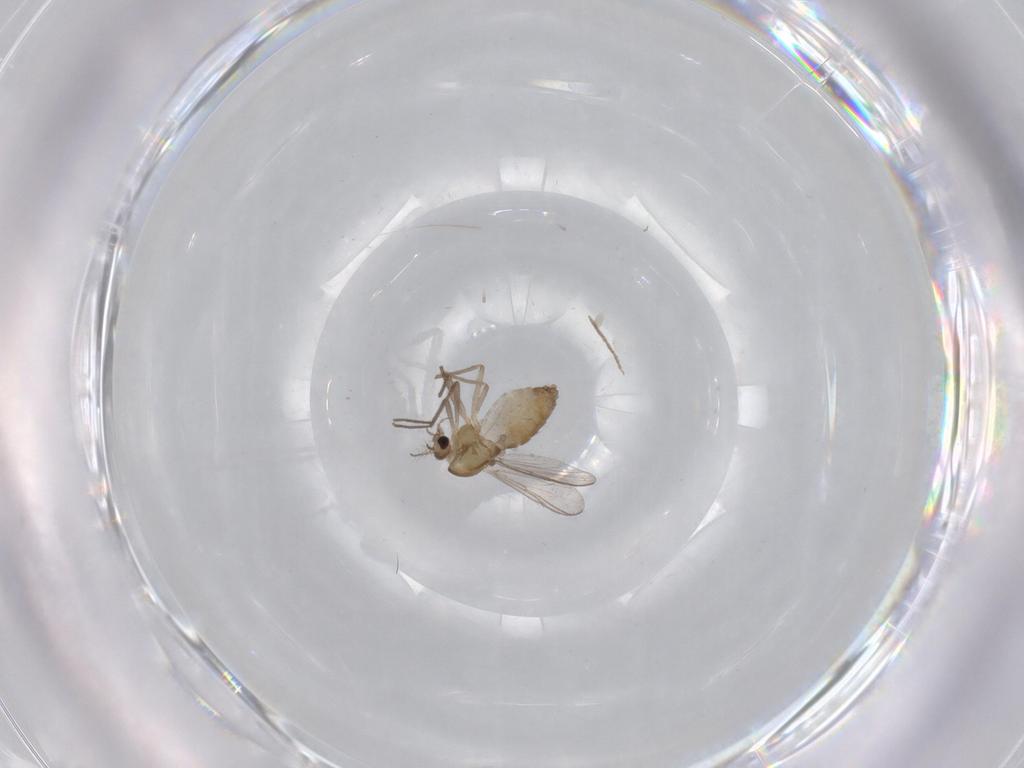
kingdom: Animalia
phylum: Arthropoda
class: Insecta
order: Diptera
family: Chironomidae
